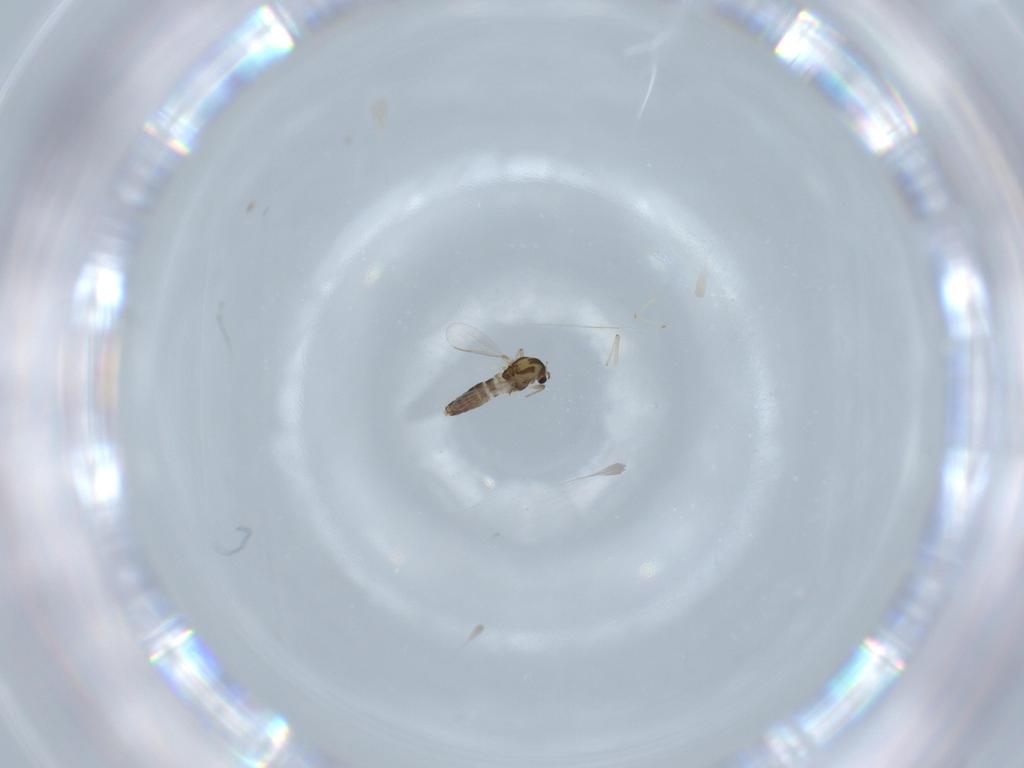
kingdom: Animalia
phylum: Arthropoda
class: Insecta
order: Diptera
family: Chironomidae
